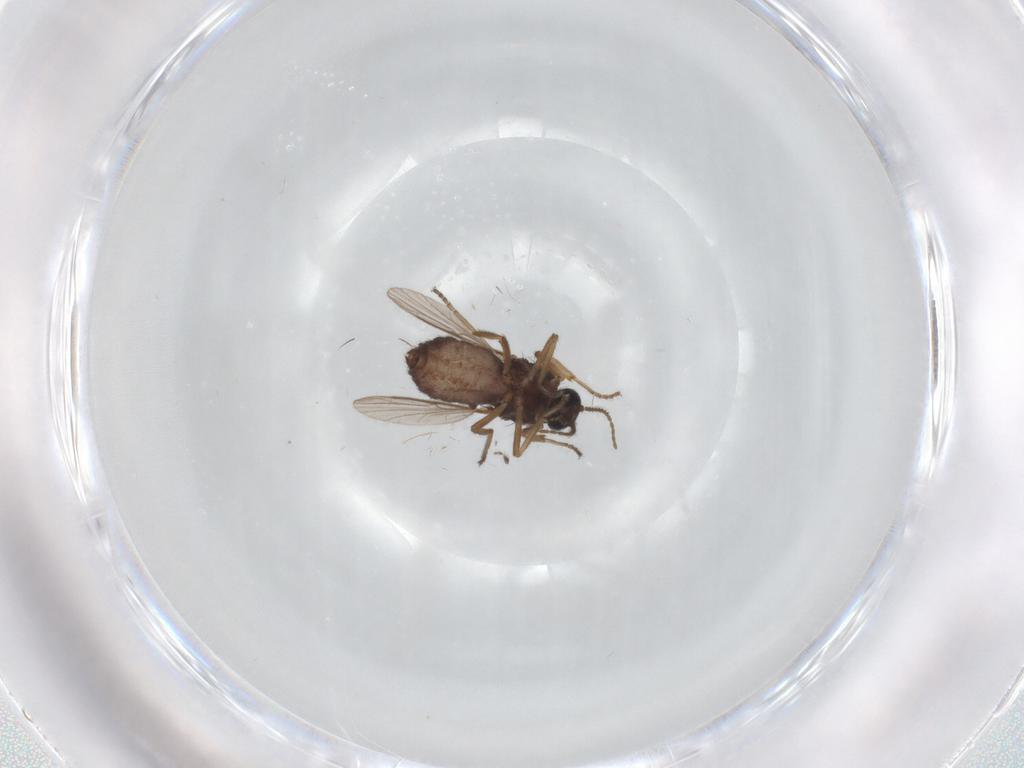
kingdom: Animalia
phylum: Arthropoda
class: Insecta
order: Diptera
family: Ceratopogonidae
